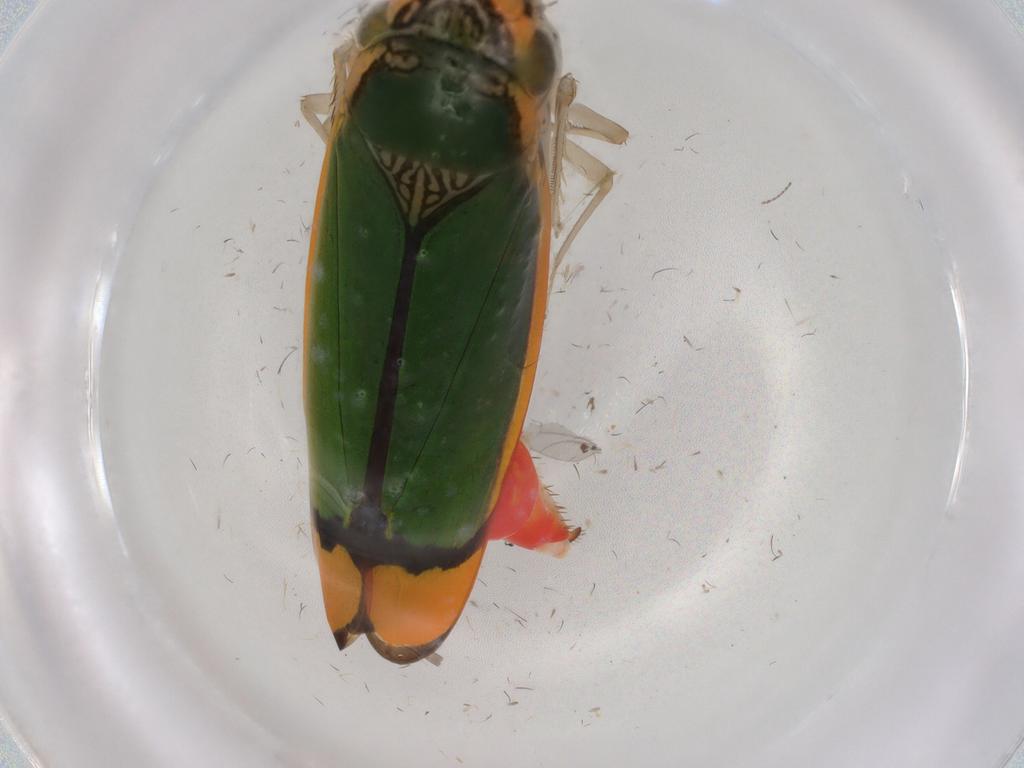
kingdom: Animalia
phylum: Arthropoda
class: Insecta
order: Hemiptera
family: Cicadellidae
